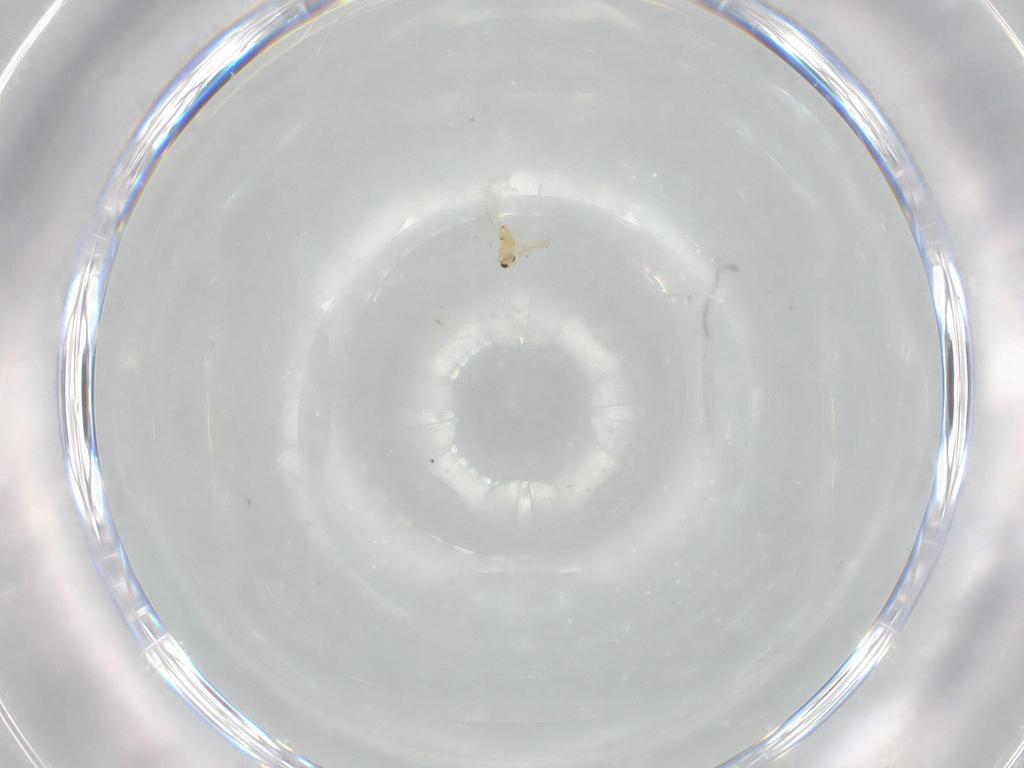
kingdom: Animalia
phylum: Arthropoda
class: Insecta
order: Hymenoptera
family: Mymaridae
